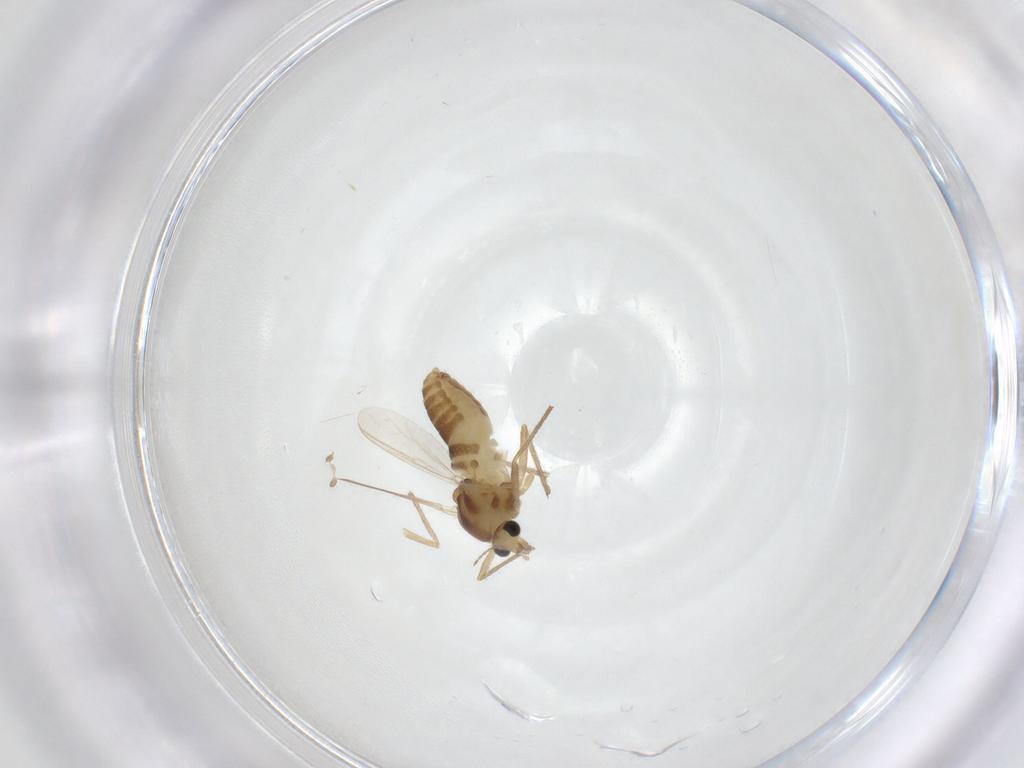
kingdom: Animalia
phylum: Arthropoda
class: Insecta
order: Diptera
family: Chironomidae
